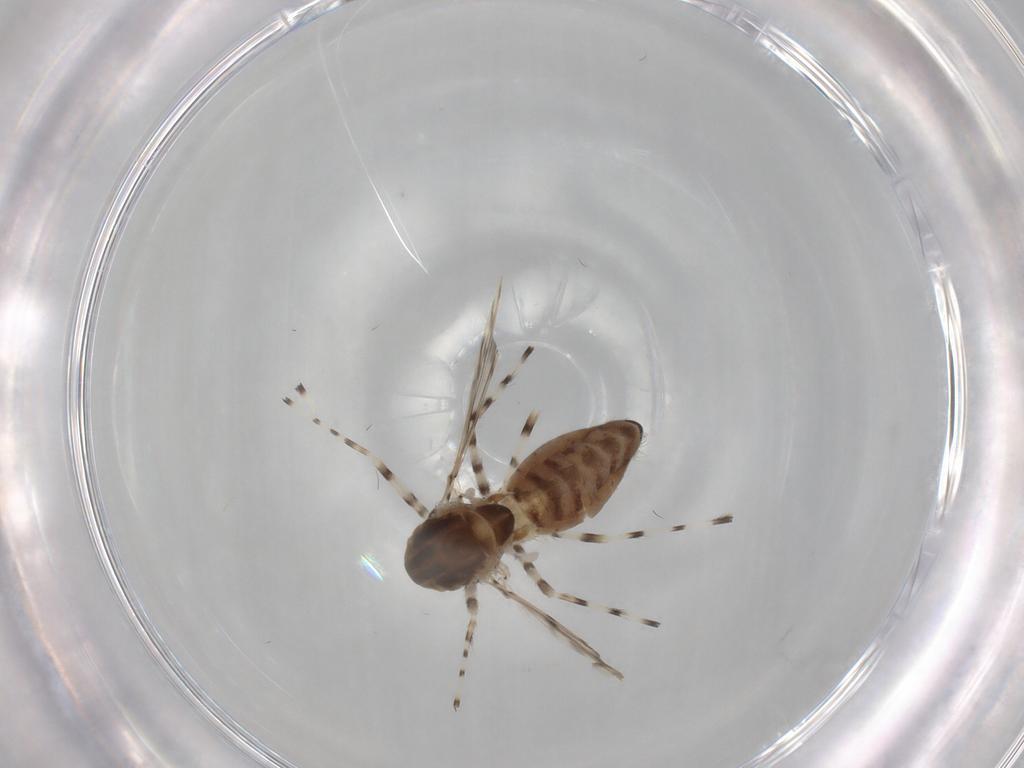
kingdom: Animalia
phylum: Arthropoda
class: Insecta
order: Diptera
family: Chironomidae
